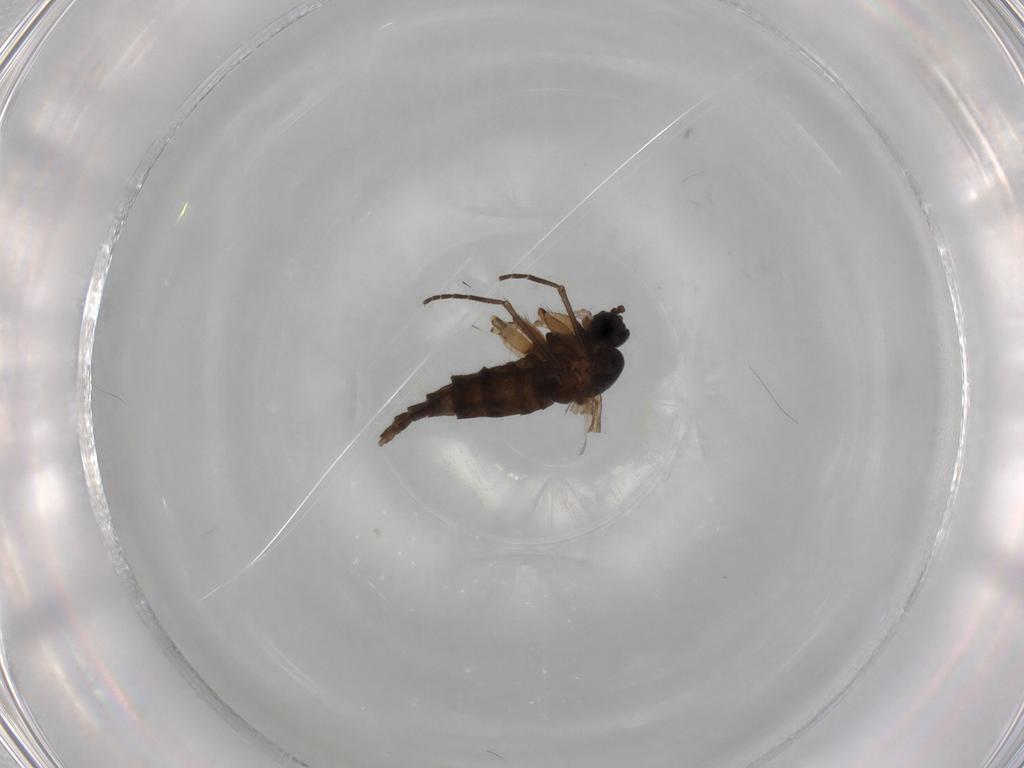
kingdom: Animalia
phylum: Arthropoda
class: Insecta
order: Diptera
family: Sciaridae
